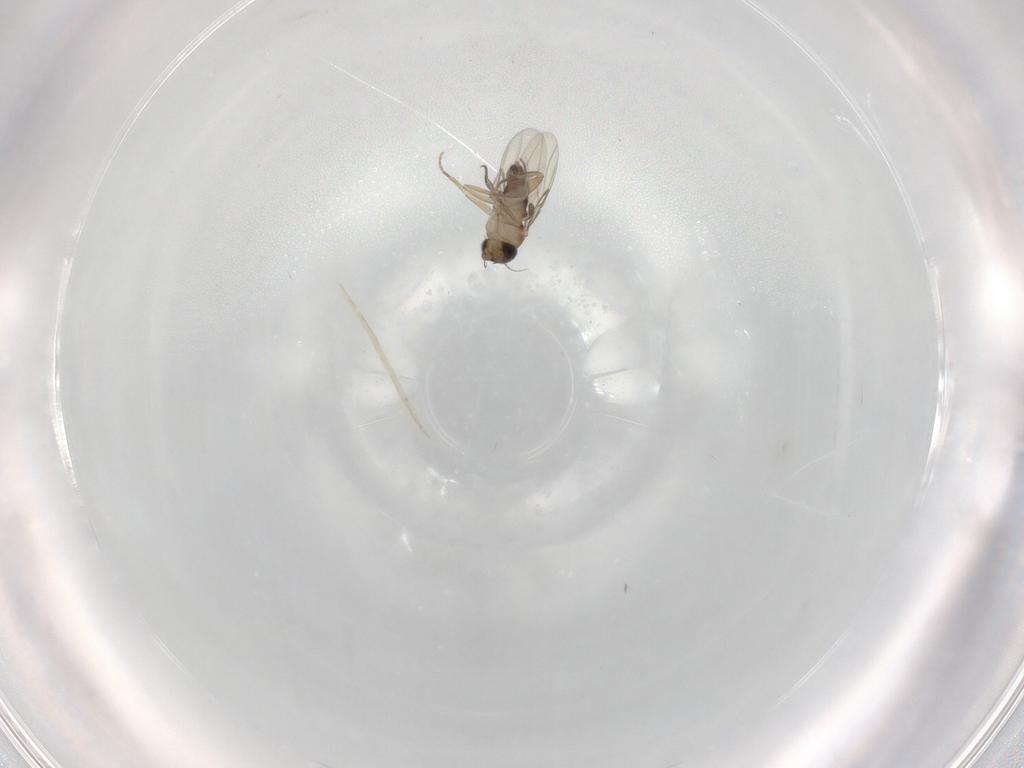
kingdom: Animalia
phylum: Arthropoda
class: Insecta
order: Diptera
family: Phoridae
